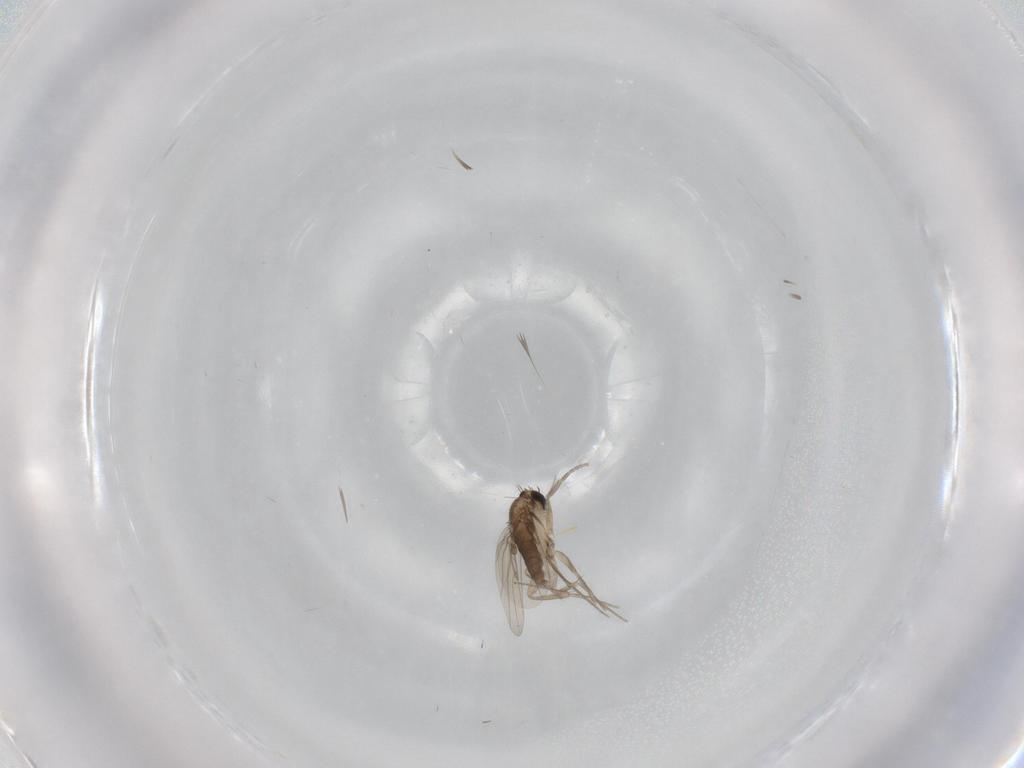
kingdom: Animalia
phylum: Arthropoda
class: Insecta
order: Diptera
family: Phoridae
